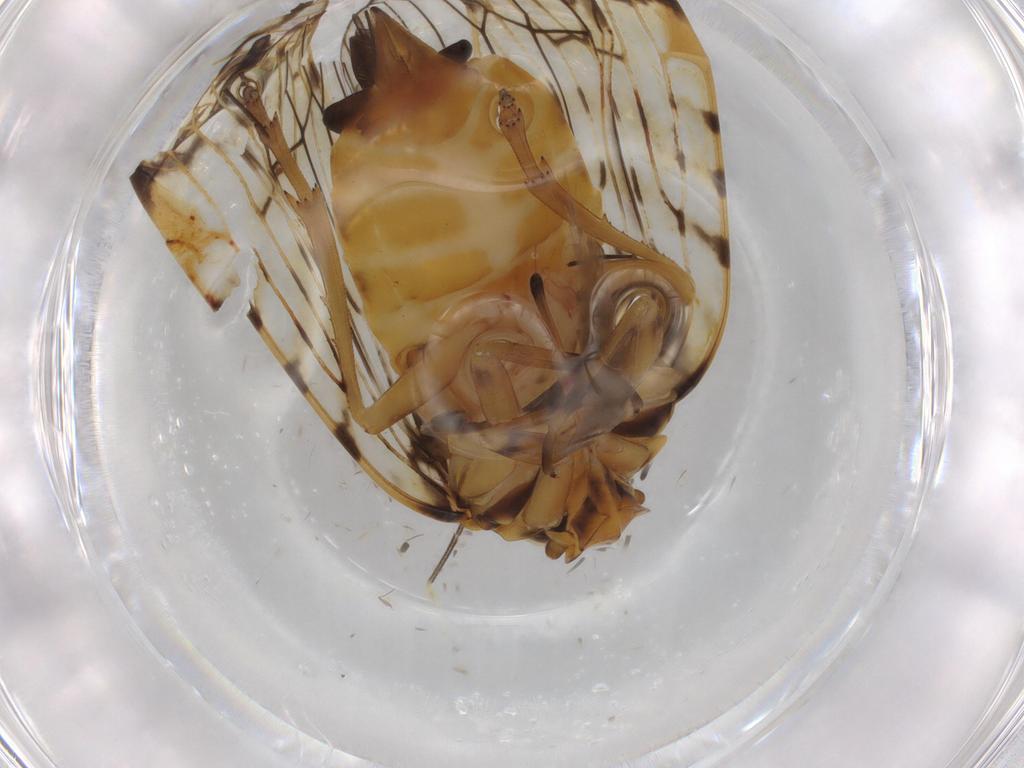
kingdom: Animalia
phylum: Arthropoda
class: Insecta
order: Hemiptera
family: Cixiidae
